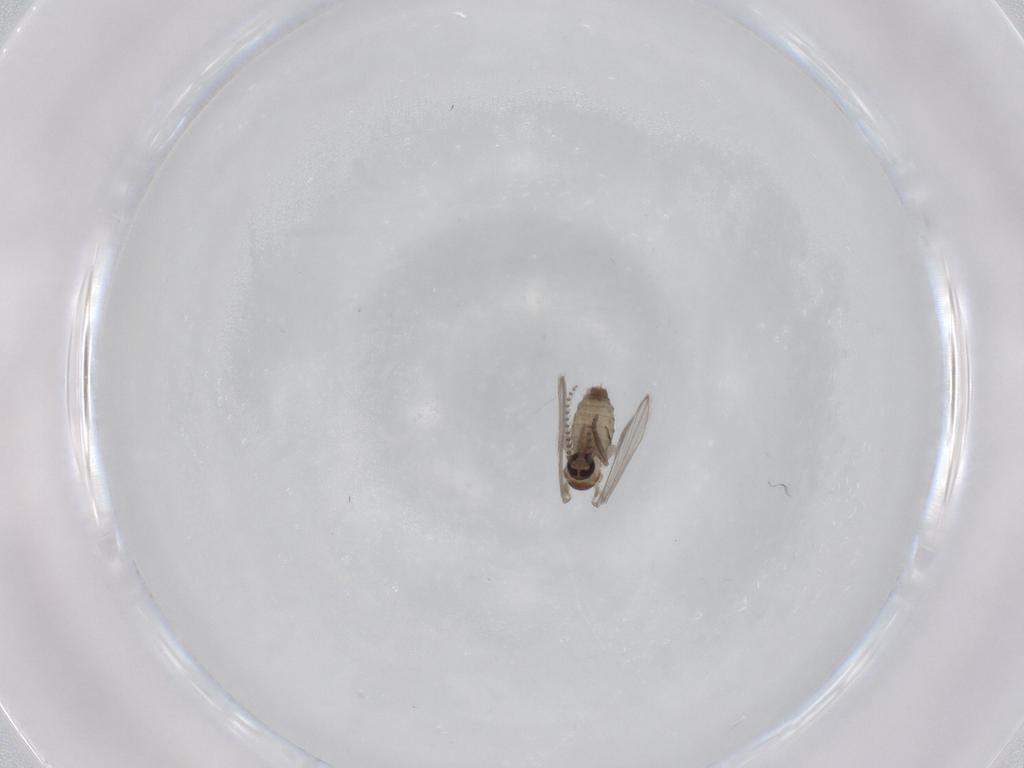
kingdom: Animalia
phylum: Arthropoda
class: Insecta
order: Diptera
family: Psychodidae
